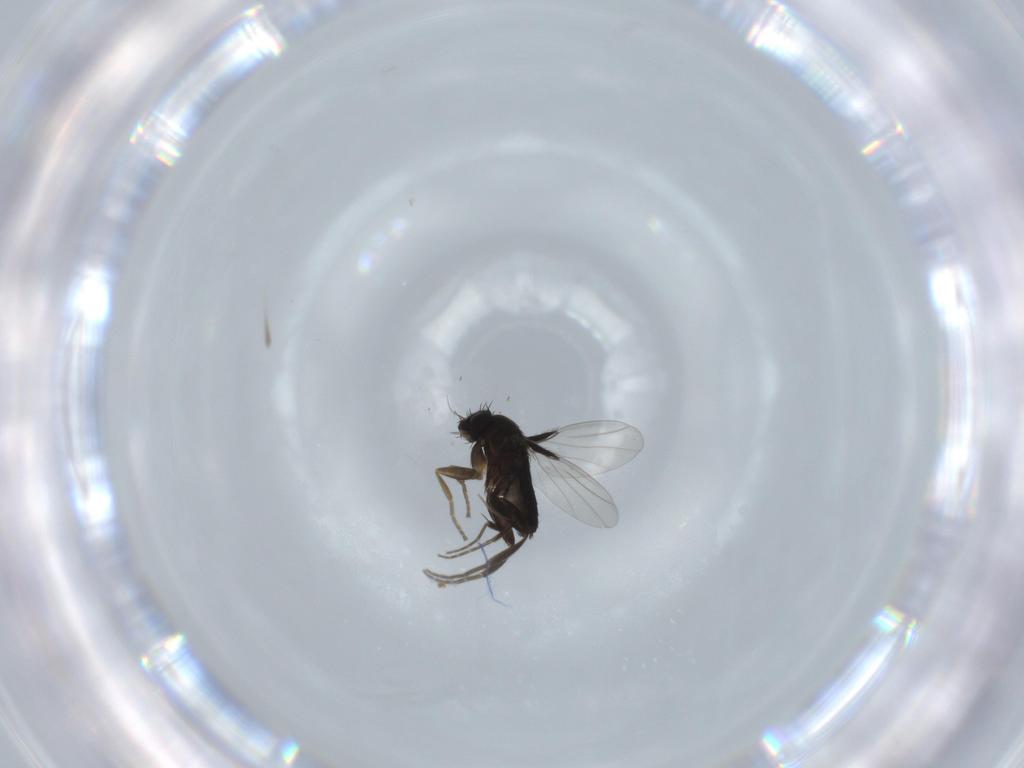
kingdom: Animalia
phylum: Arthropoda
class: Insecta
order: Diptera
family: Phoridae
